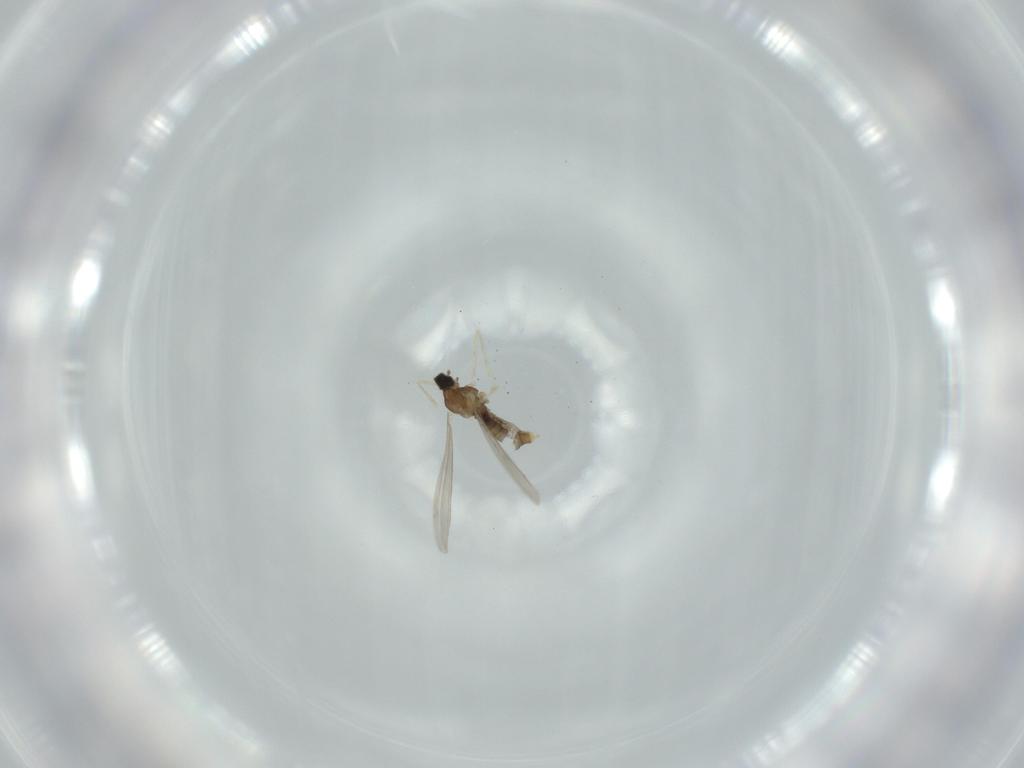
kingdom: Animalia
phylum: Arthropoda
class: Insecta
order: Diptera
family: Cecidomyiidae
